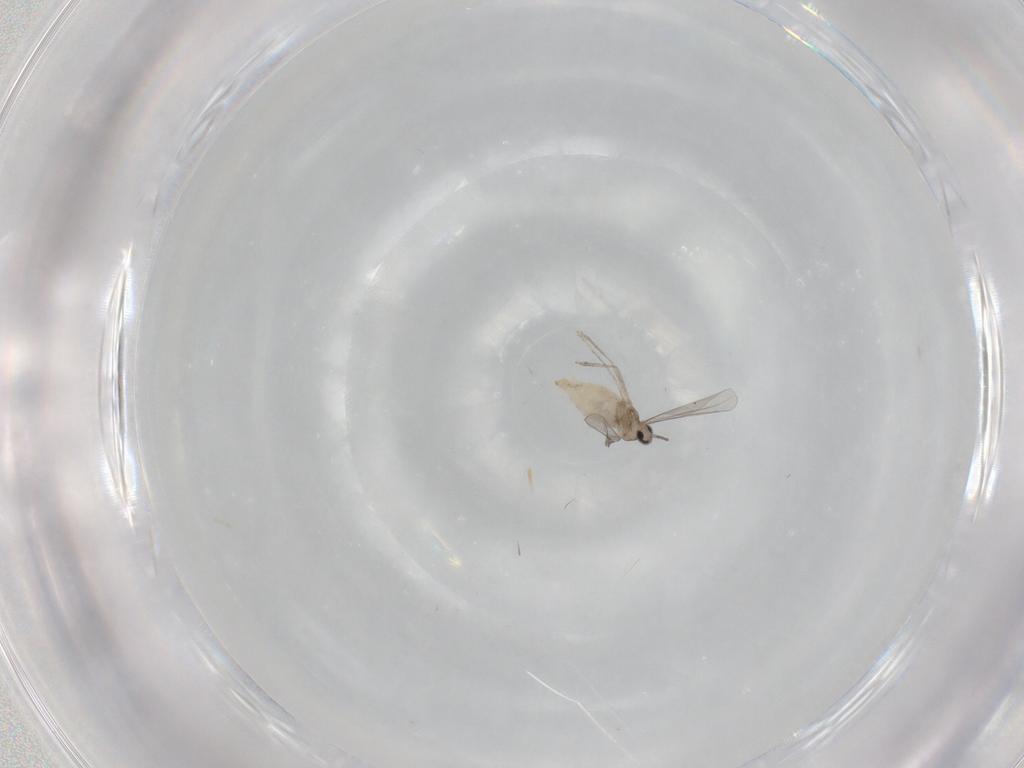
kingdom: Animalia
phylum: Arthropoda
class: Insecta
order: Diptera
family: Cecidomyiidae
